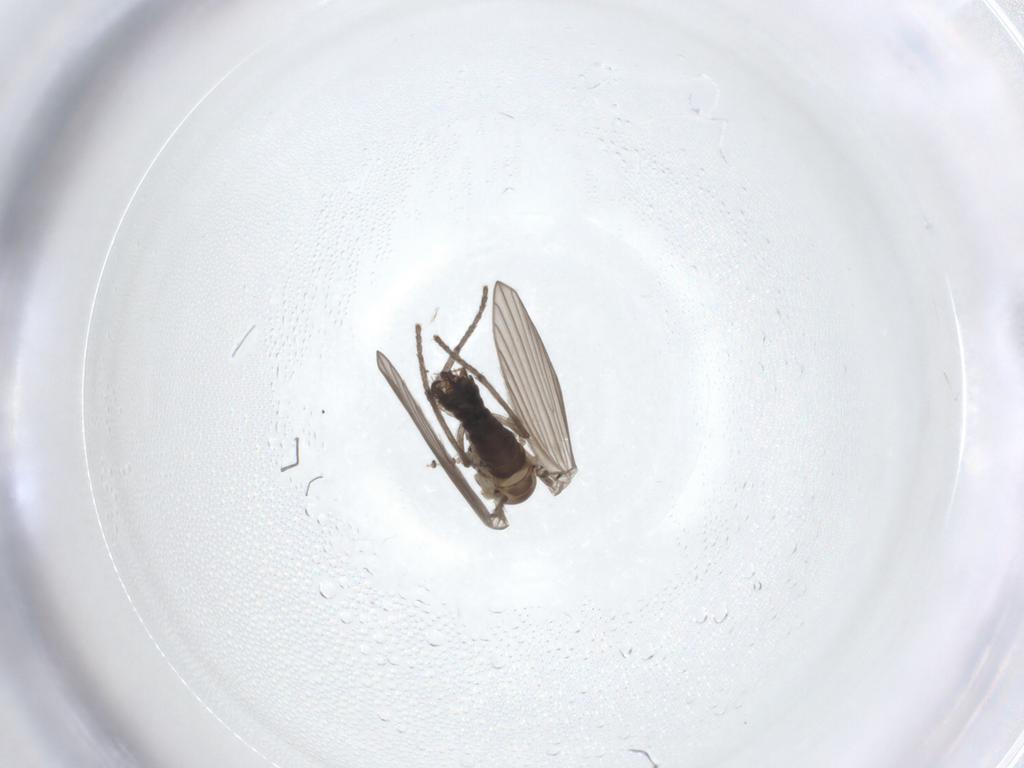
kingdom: Animalia
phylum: Arthropoda
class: Insecta
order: Diptera
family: Psychodidae
